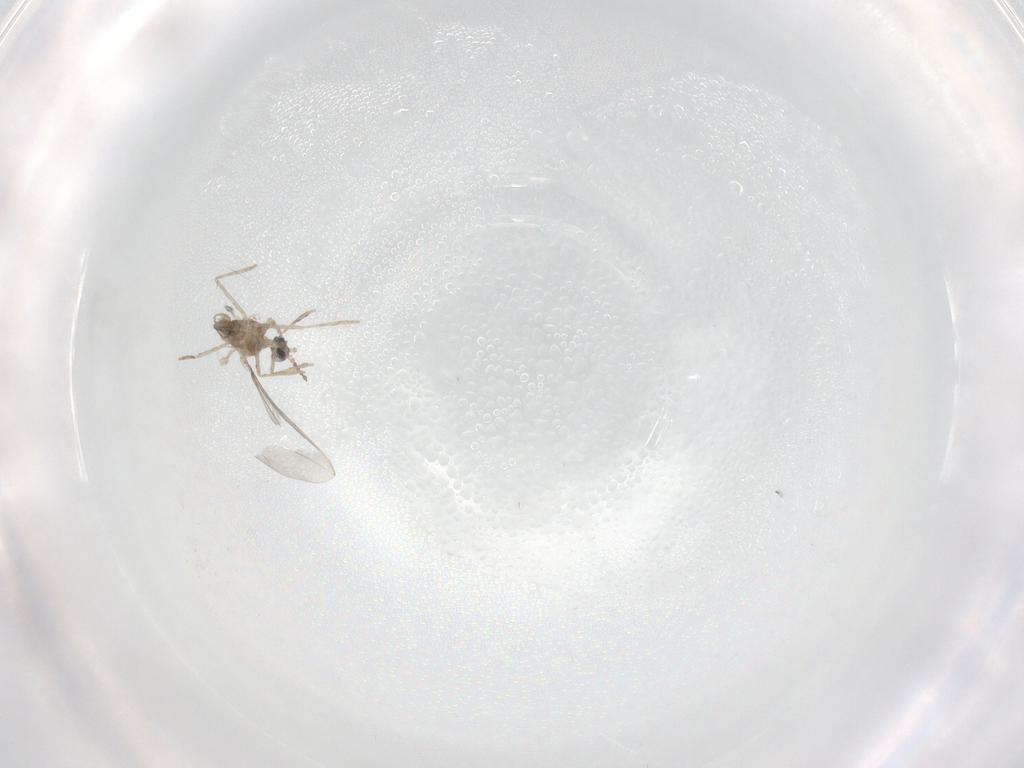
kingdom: Animalia
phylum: Arthropoda
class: Insecta
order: Diptera
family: Cecidomyiidae
